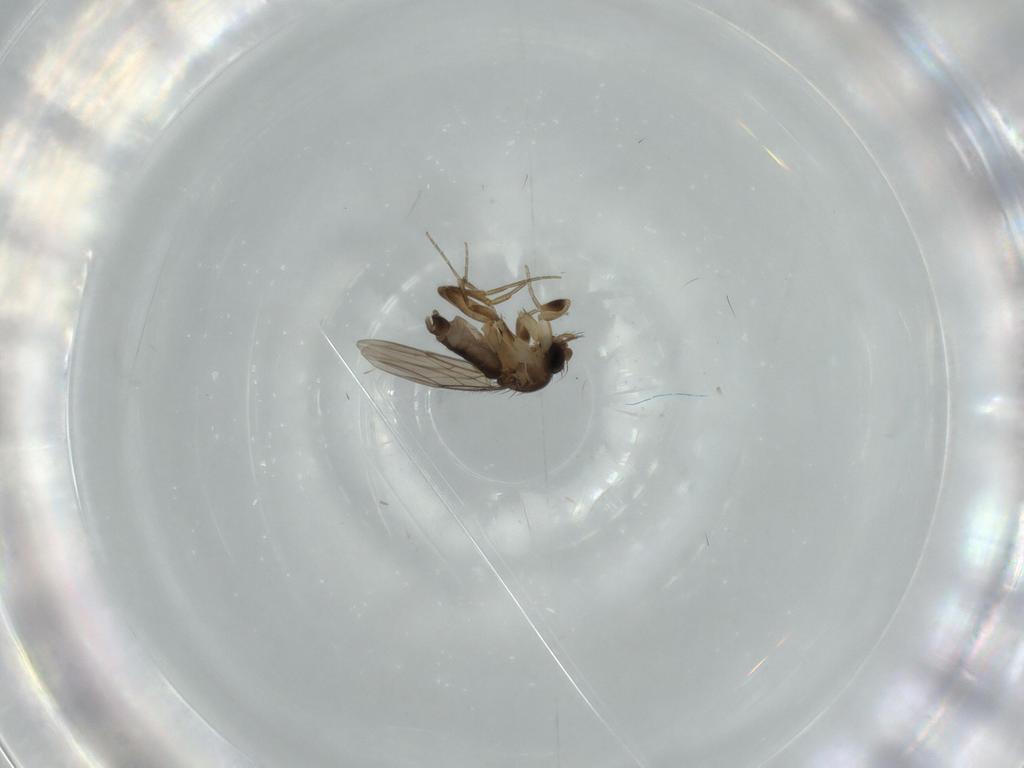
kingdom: Animalia
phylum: Arthropoda
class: Insecta
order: Diptera
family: Phoridae
